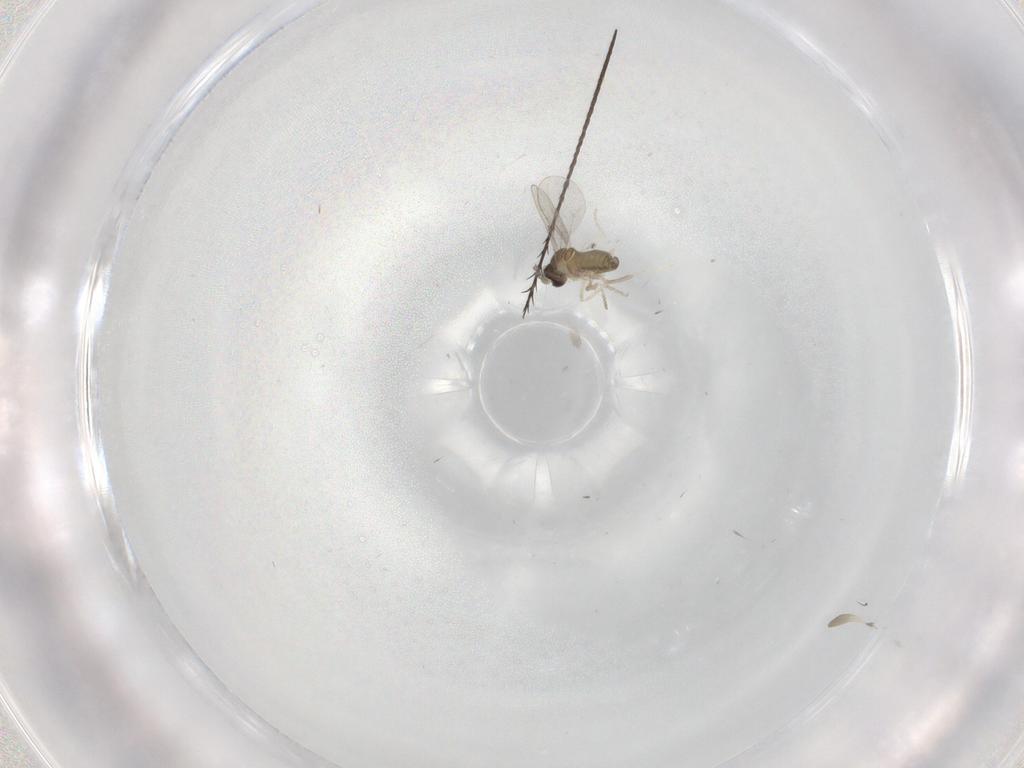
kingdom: Animalia
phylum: Arthropoda
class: Insecta
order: Diptera
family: Cecidomyiidae
